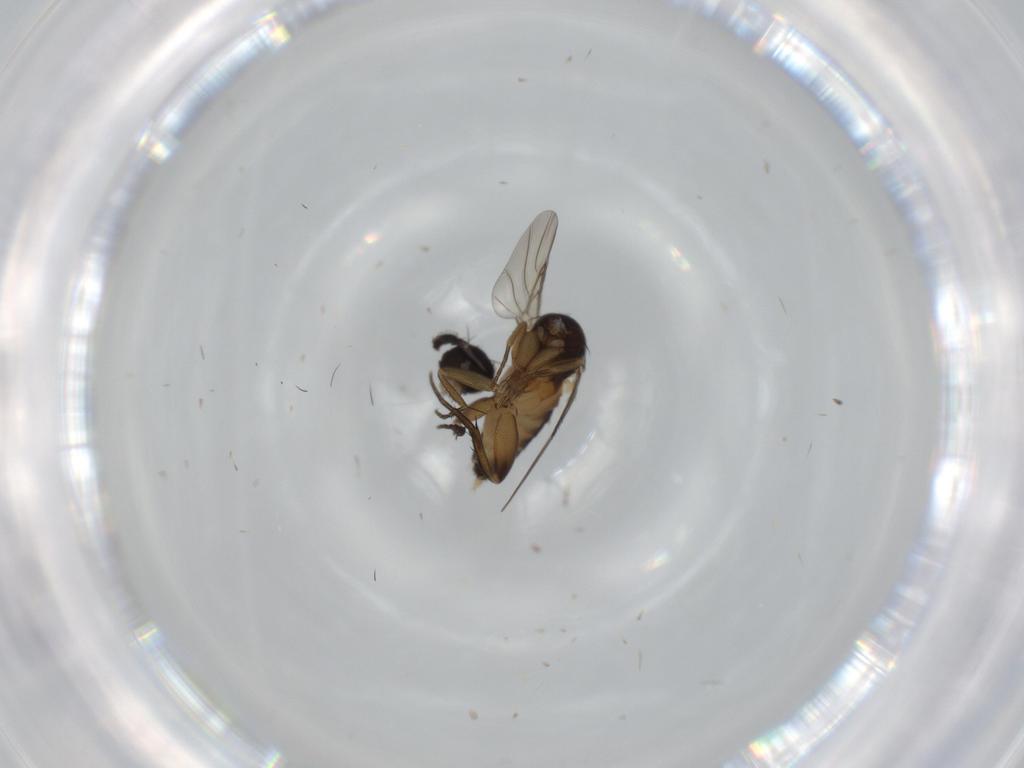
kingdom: Animalia
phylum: Arthropoda
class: Insecta
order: Diptera
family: Phoridae
